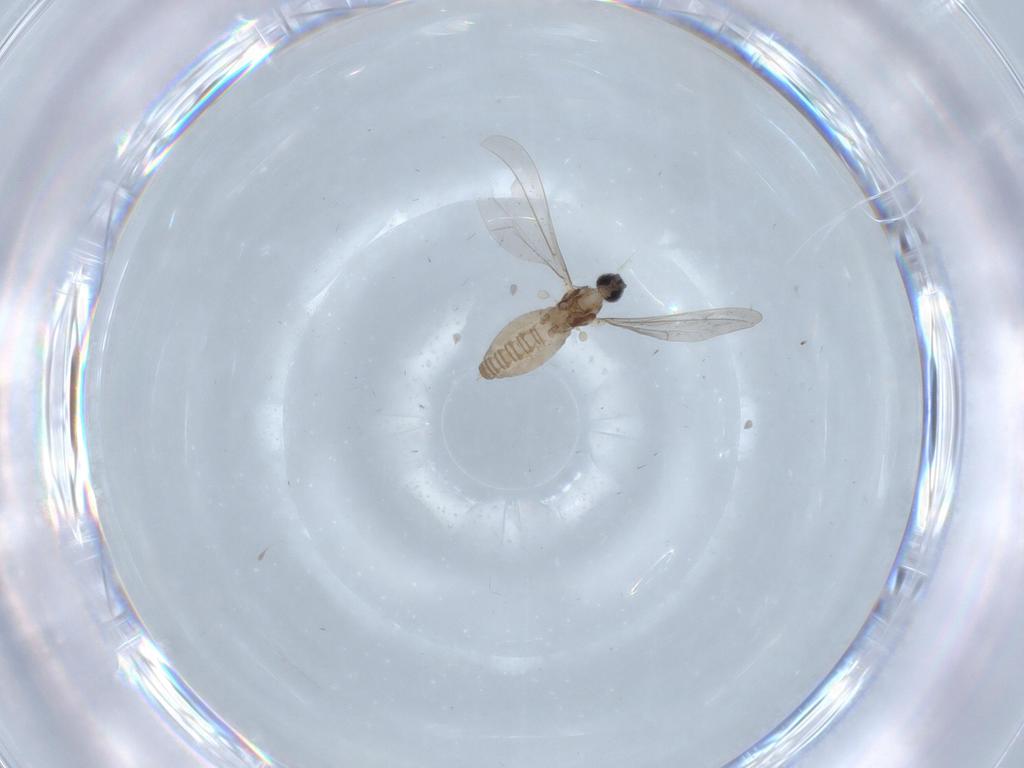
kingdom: Animalia
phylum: Arthropoda
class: Insecta
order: Diptera
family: Cecidomyiidae
